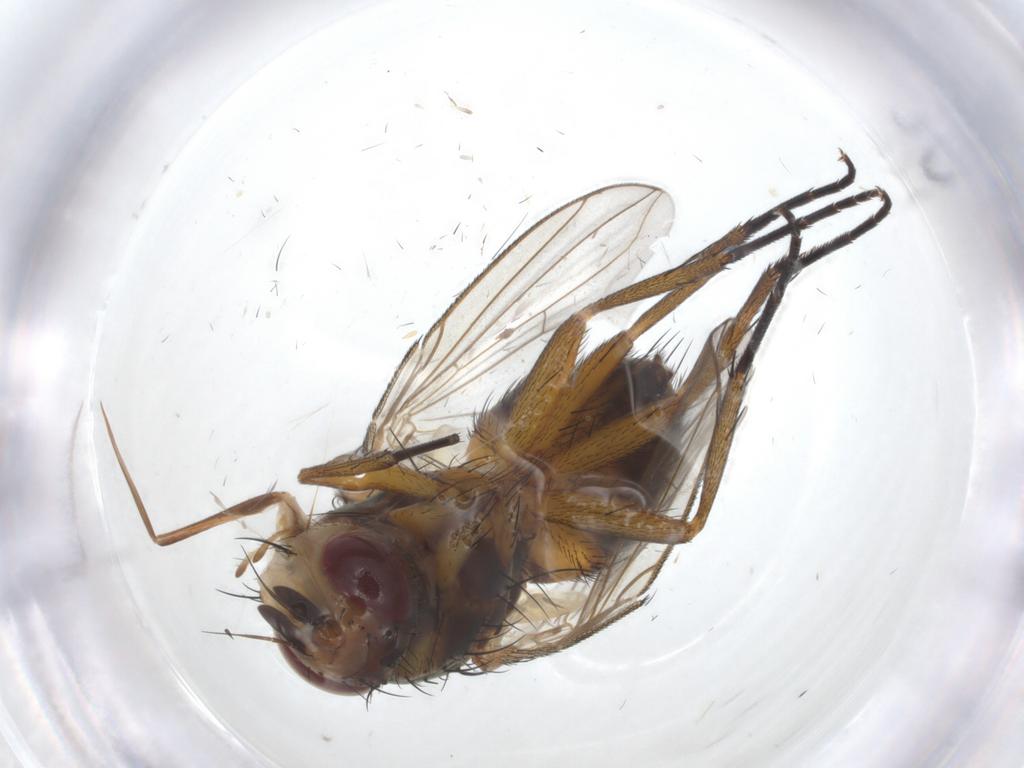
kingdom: Animalia
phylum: Arthropoda
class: Insecta
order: Diptera
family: Tachinidae
